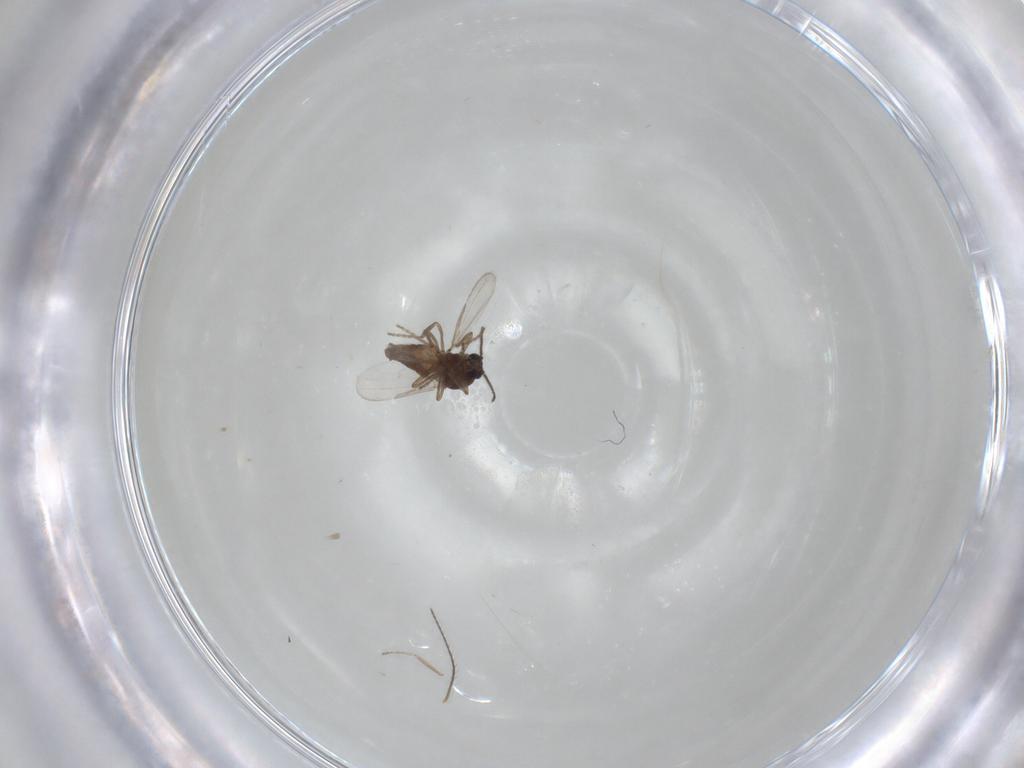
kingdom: Animalia
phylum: Arthropoda
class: Insecta
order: Diptera
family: Ceratopogonidae
